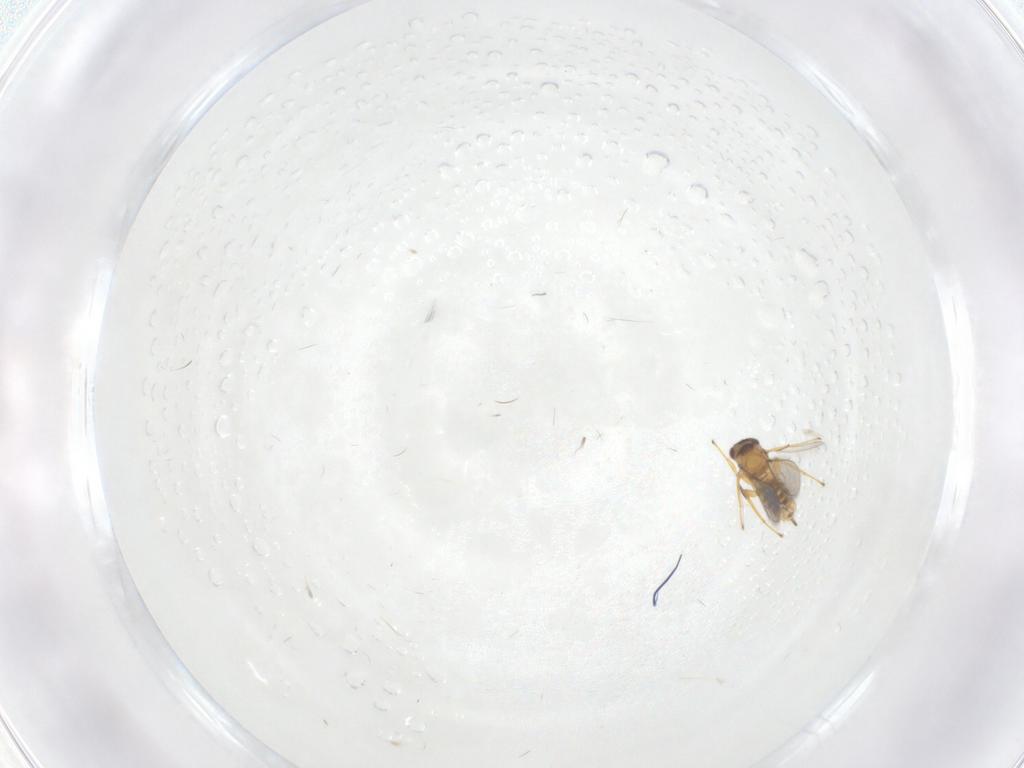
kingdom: Animalia
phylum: Arthropoda
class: Insecta
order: Hymenoptera
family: Mymaridae
